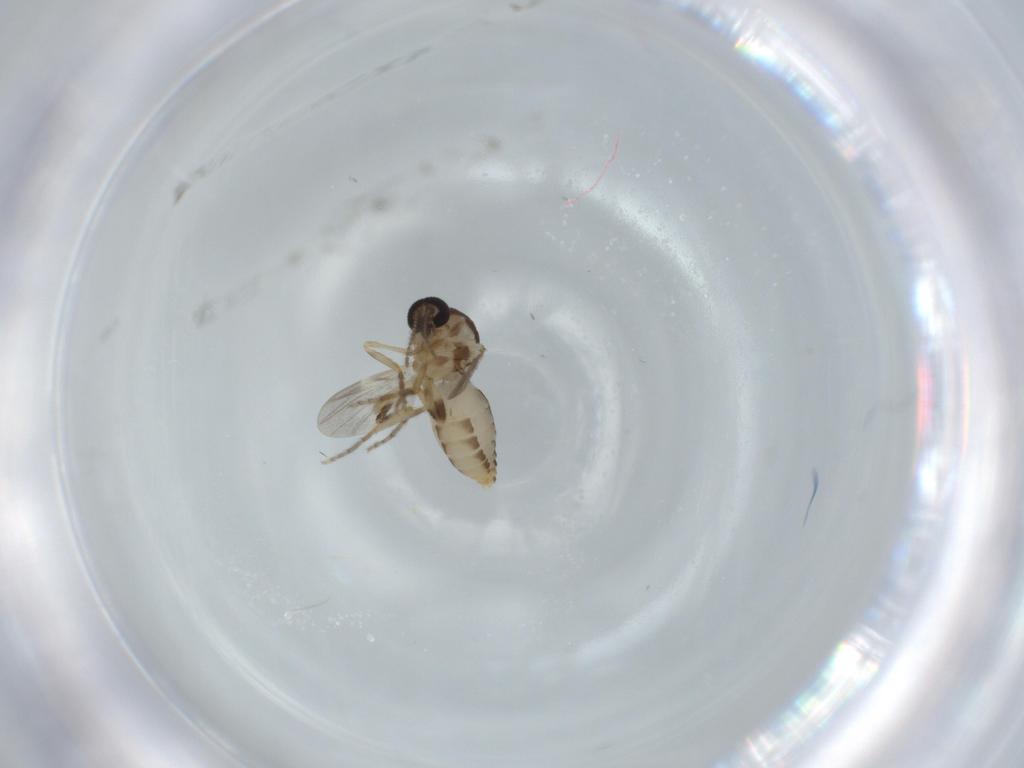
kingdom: Animalia
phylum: Arthropoda
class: Insecta
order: Diptera
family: Ceratopogonidae
